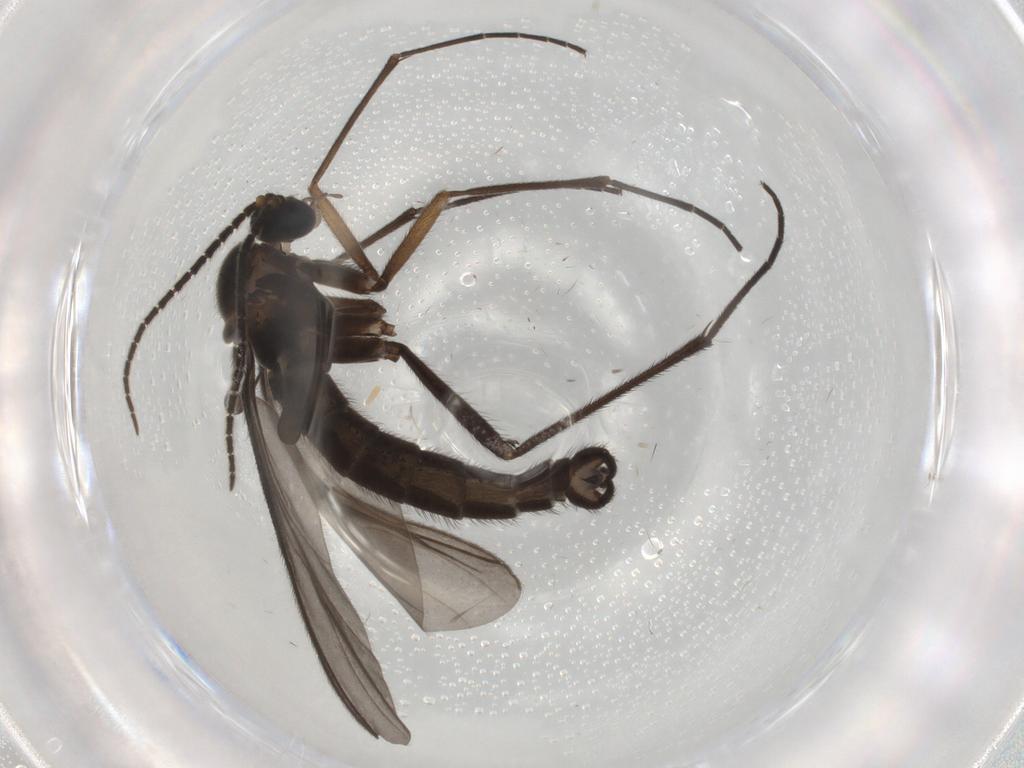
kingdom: Animalia
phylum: Arthropoda
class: Insecta
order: Diptera
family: Sciaridae
